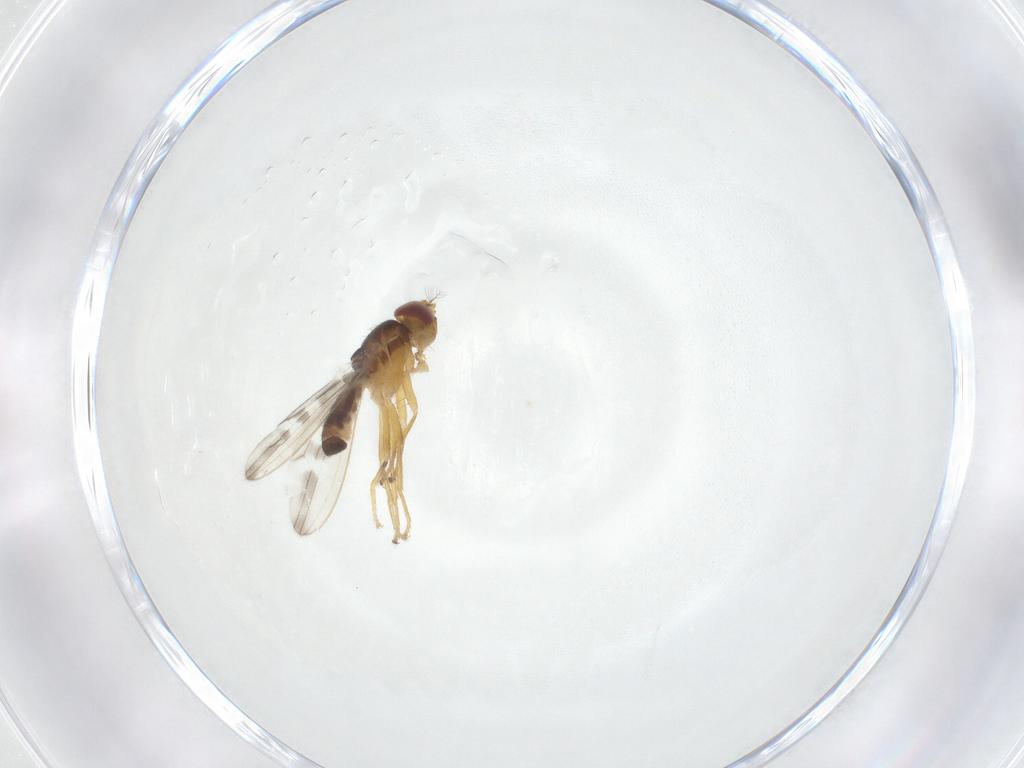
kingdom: Animalia
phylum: Arthropoda
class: Insecta
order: Diptera
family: Periscelididae
